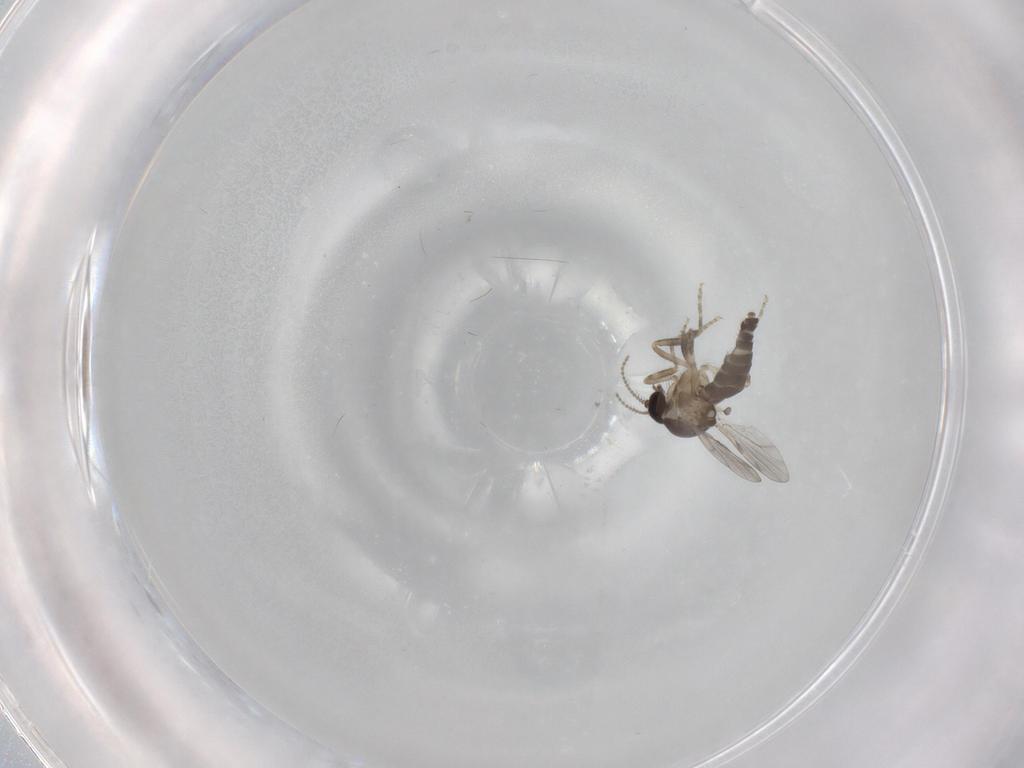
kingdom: Animalia
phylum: Arthropoda
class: Insecta
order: Diptera
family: Ceratopogonidae
